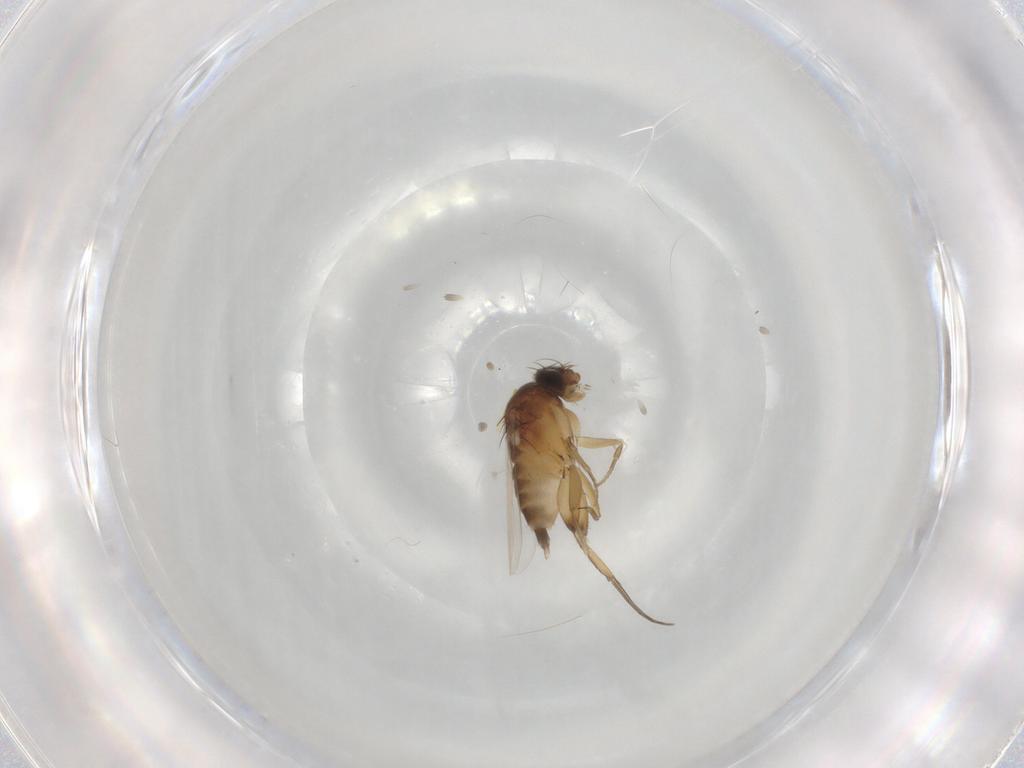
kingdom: Animalia
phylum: Arthropoda
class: Insecta
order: Diptera
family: Phoridae
